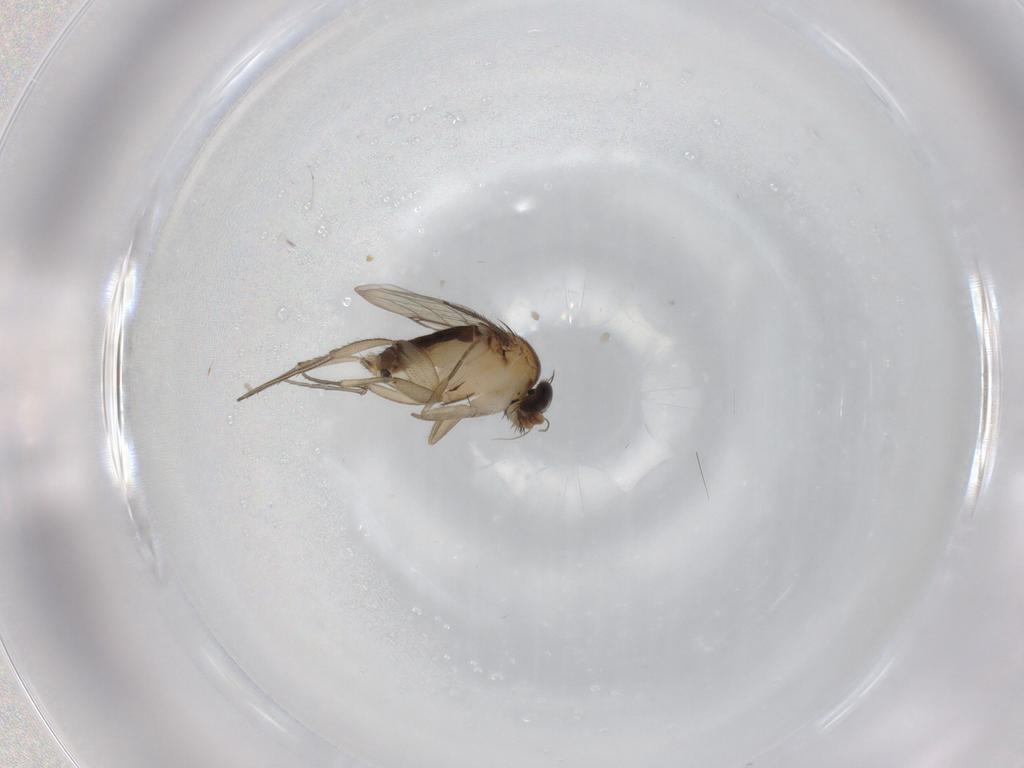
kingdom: Animalia
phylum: Arthropoda
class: Insecta
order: Diptera
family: Phoridae
